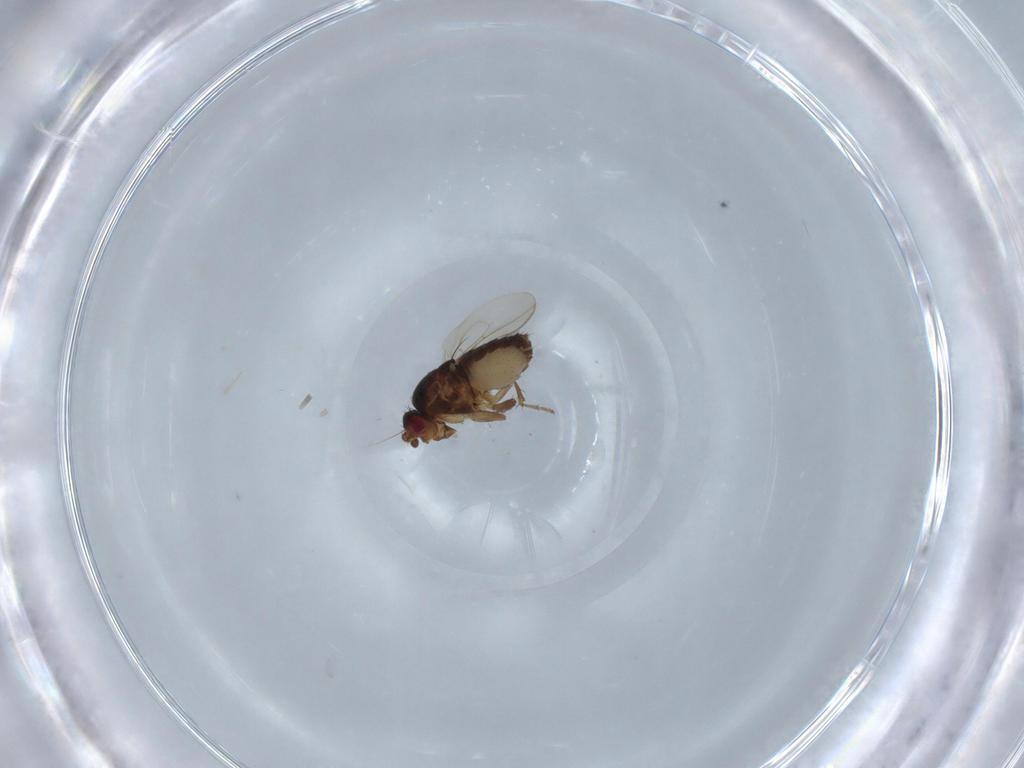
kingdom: Animalia
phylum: Arthropoda
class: Insecta
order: Diptera
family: Sphaeroceridae
